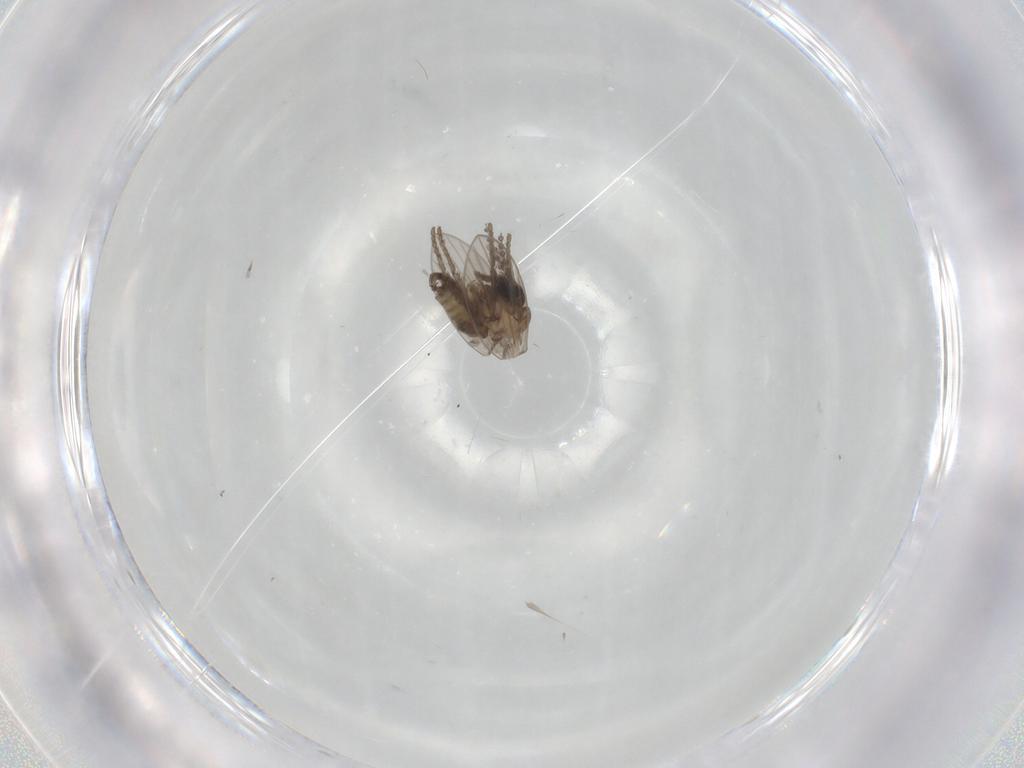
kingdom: Animalia
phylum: Arthropoda
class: Insecta
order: Diptera
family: Psychodidae
